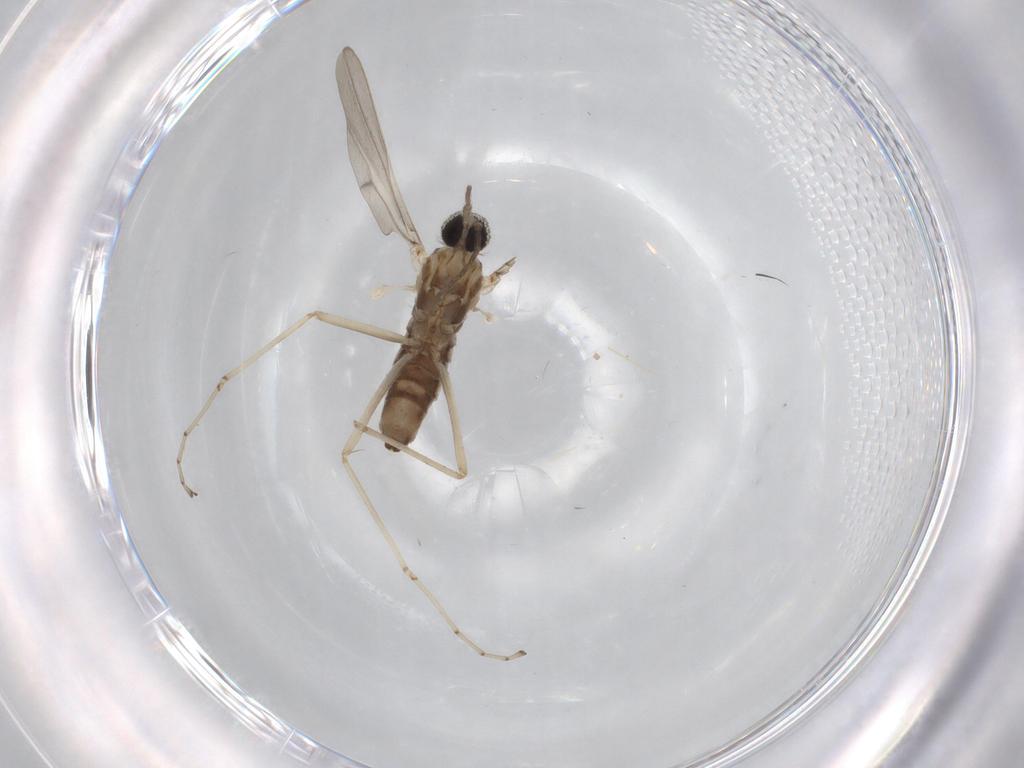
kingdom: Animalia
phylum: Arthropoda
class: Insecta
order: Diptera
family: Cecidomyiidae
